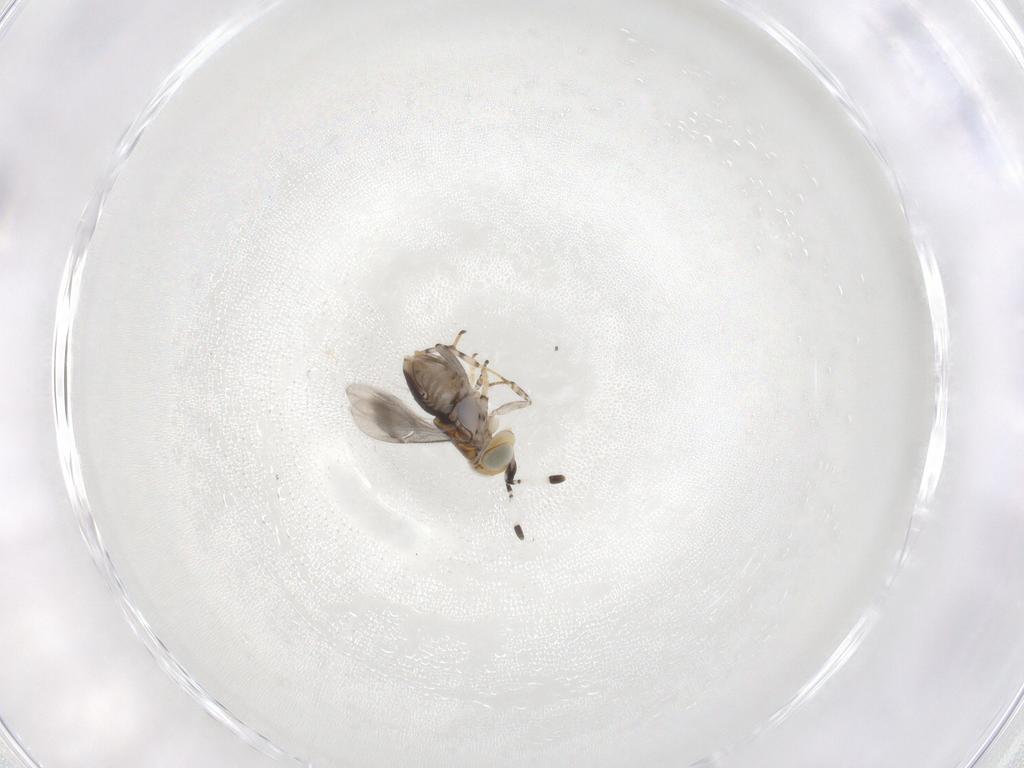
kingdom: Animalia
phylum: Arthropoda
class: Insecta
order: Hymenoptera
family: Encyrtidae
